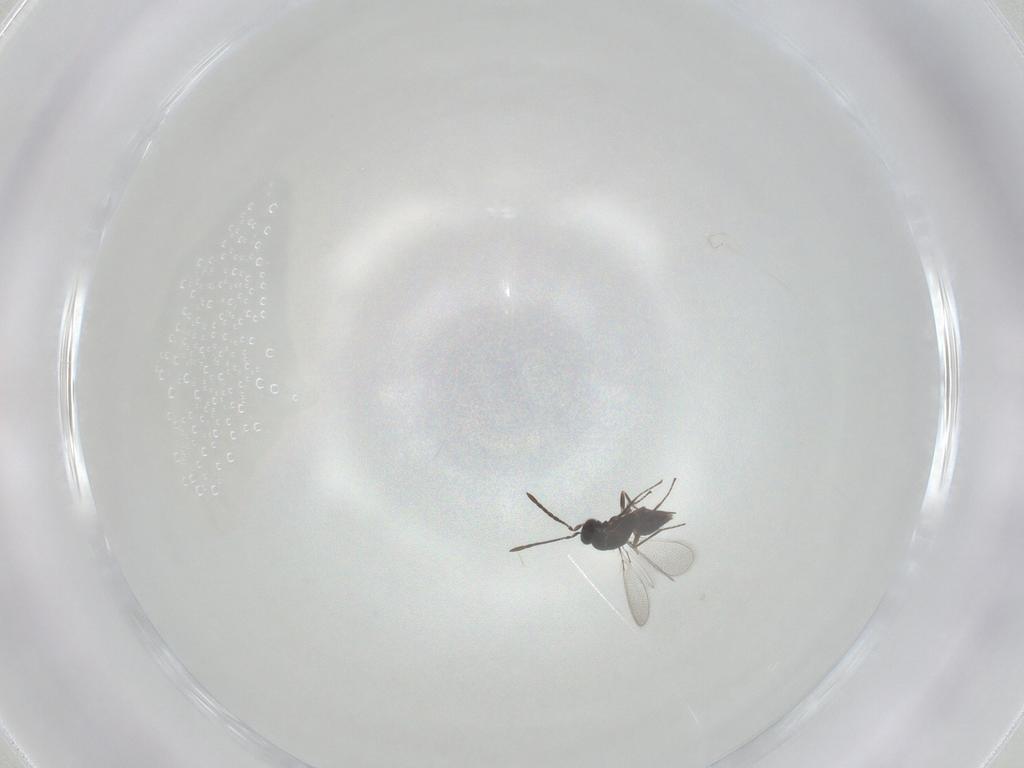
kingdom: Animalia
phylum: Arthropoda
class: Insecta
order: Hymenoptera
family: Mymaridae
